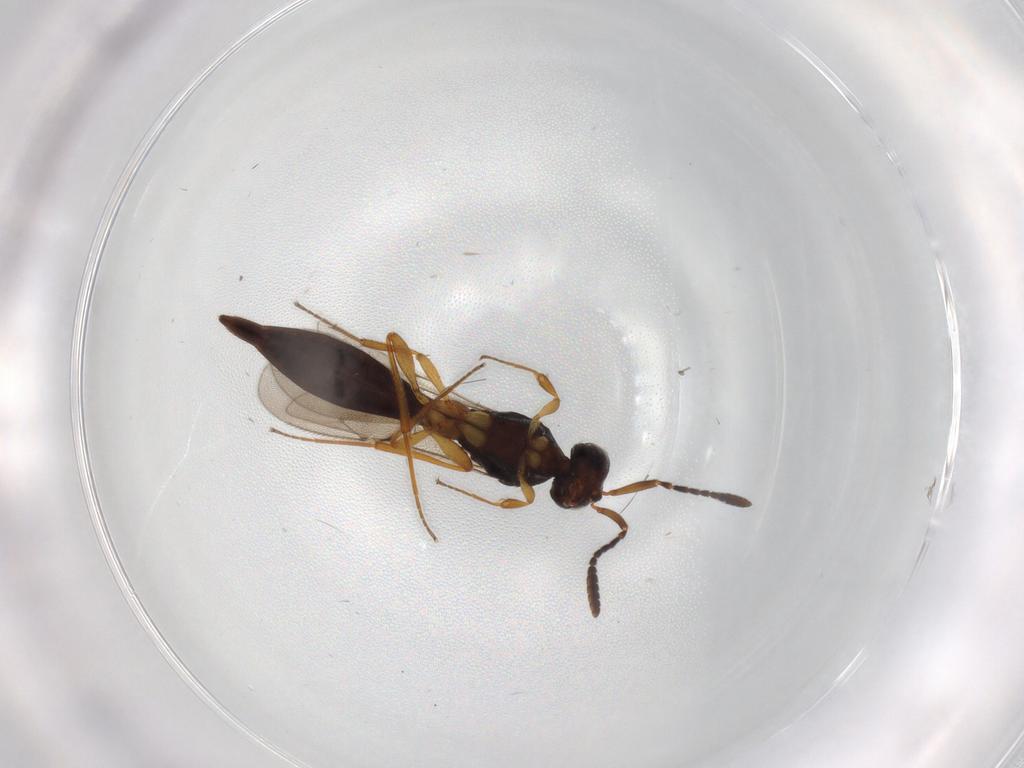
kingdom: Animalia
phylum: Arthropoda
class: Insecta
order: Hymenoptera
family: Scelionidae
